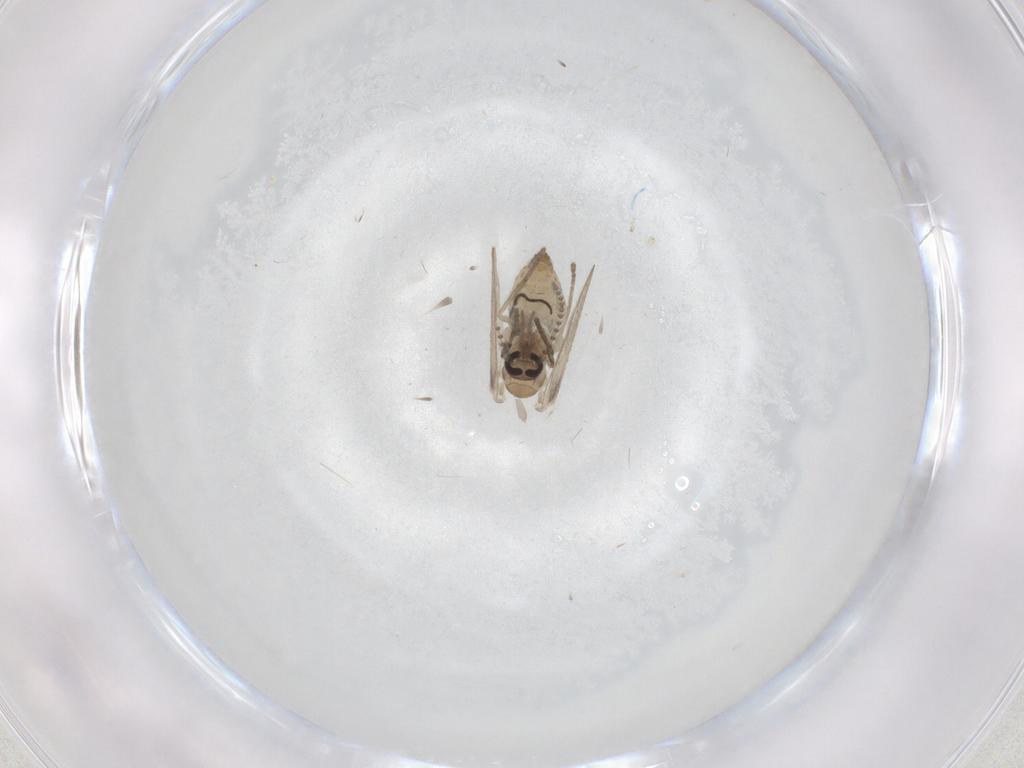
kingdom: Animalia
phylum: Arthropoda
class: Insecta
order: Diptera
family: Cecidomyiidae
